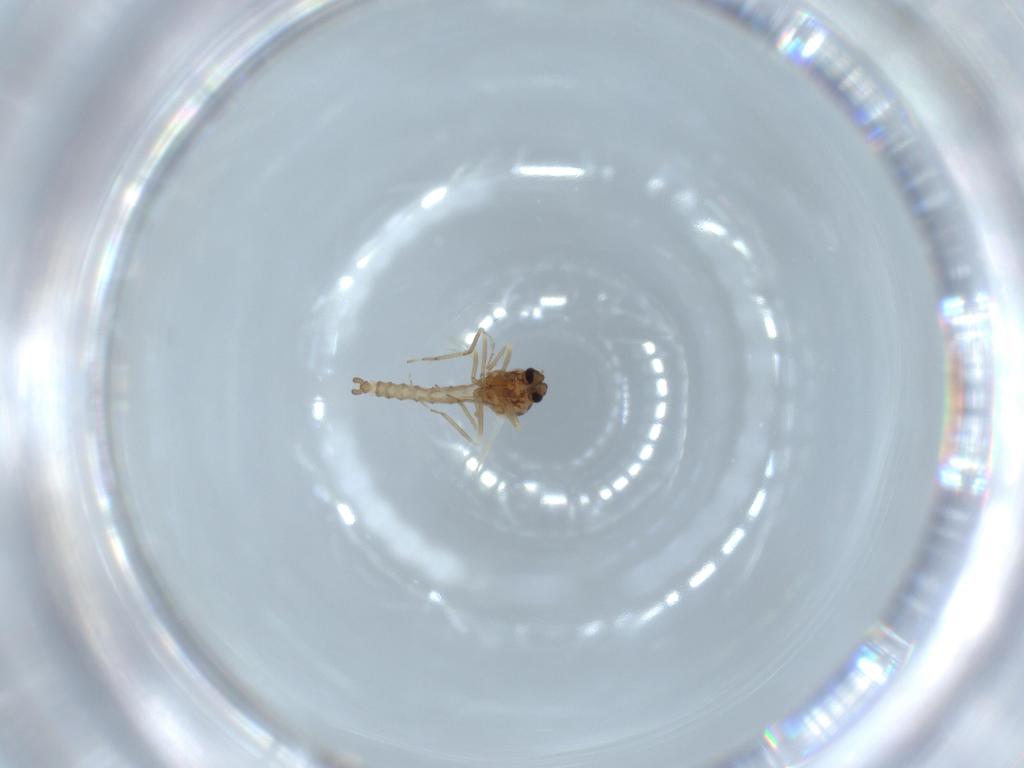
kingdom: Animalia
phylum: Arthropoda
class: Insecta
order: Diptera
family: Ceratopogonidae
